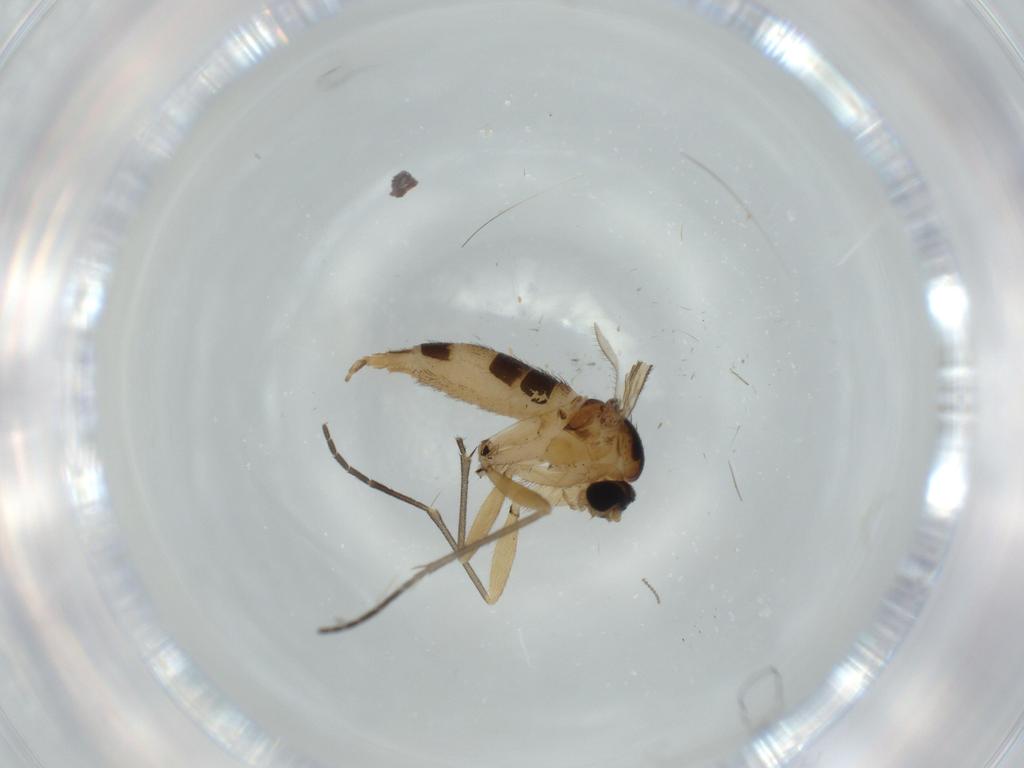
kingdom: Animalia
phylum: Arthropoda
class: Insecta
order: Diptera
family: Sciaridae
